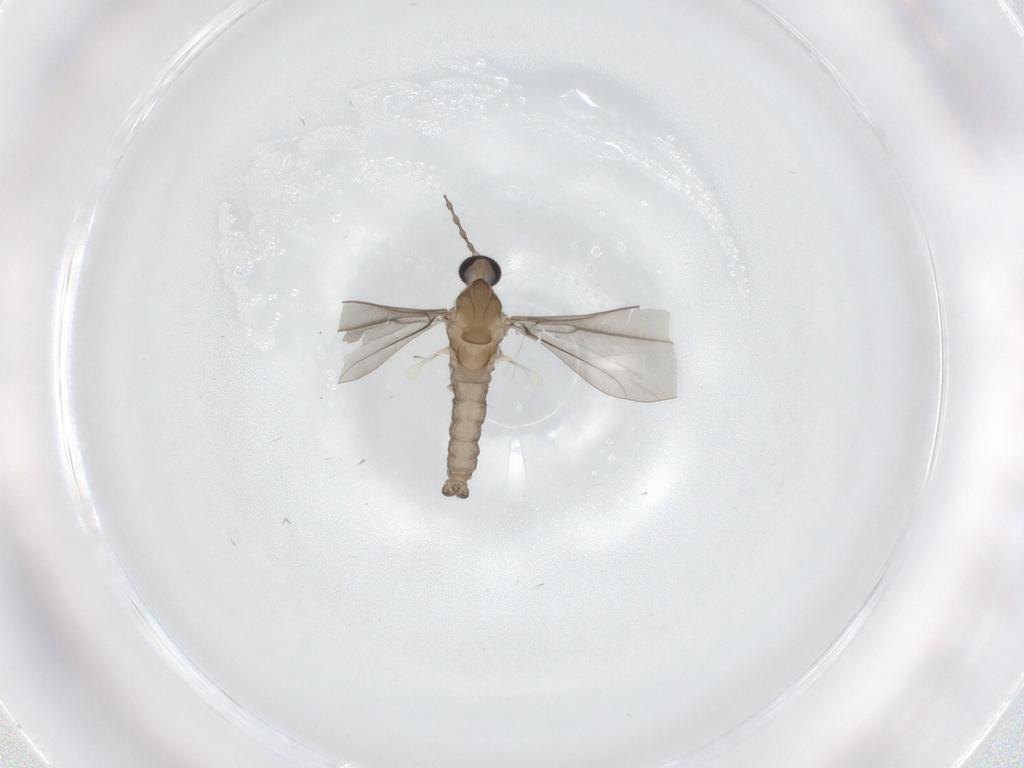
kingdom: Animalia
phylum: Arthropoda
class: Insecta
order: Diptera
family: Cecidomyiidae
